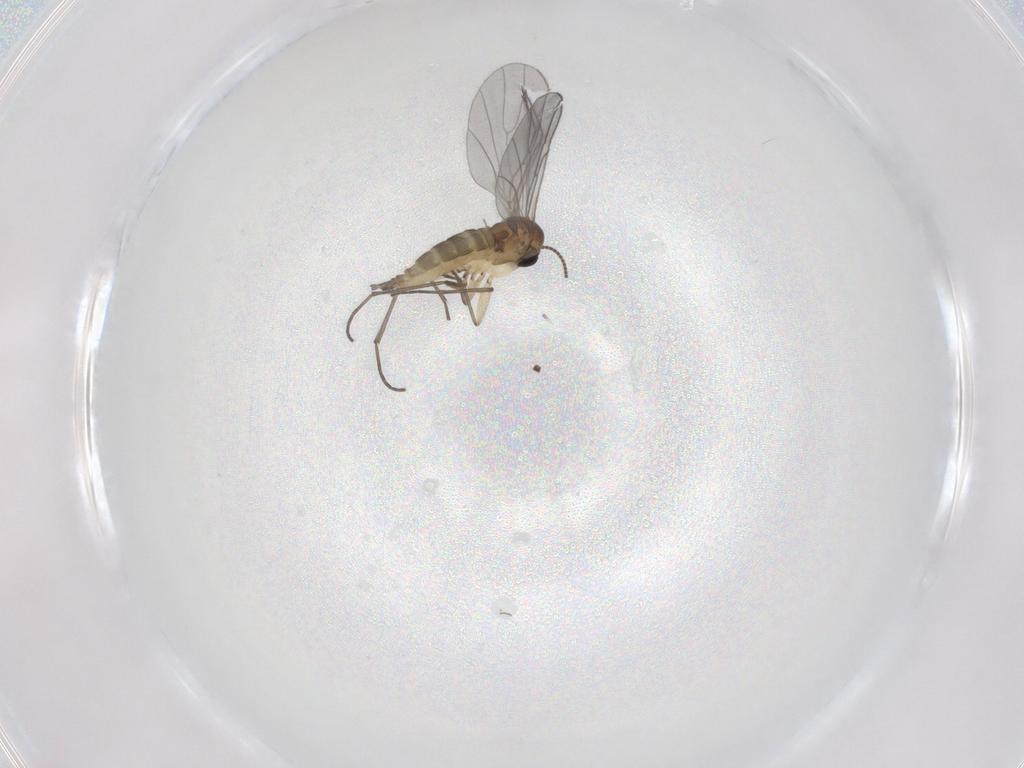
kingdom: Animalia
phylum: Arthropoda
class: Insecta
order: Diptera
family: Sciaridae
